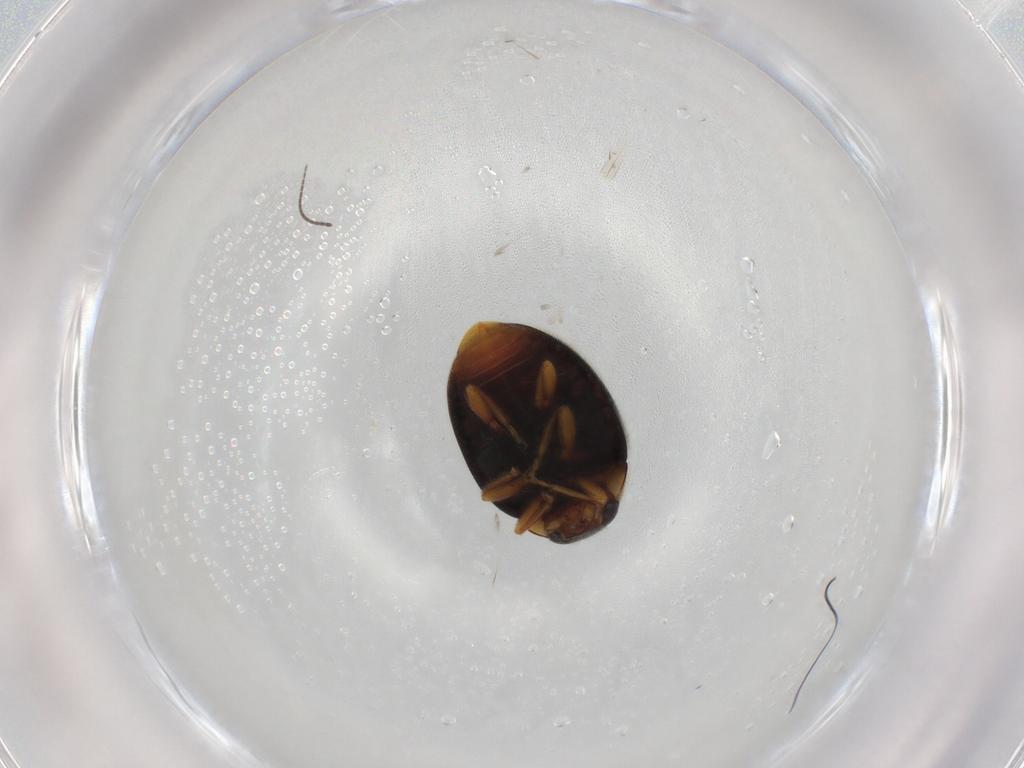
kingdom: Animalia
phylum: Arthropoda
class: Insecta
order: Coleoptera
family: Coccinellidae
